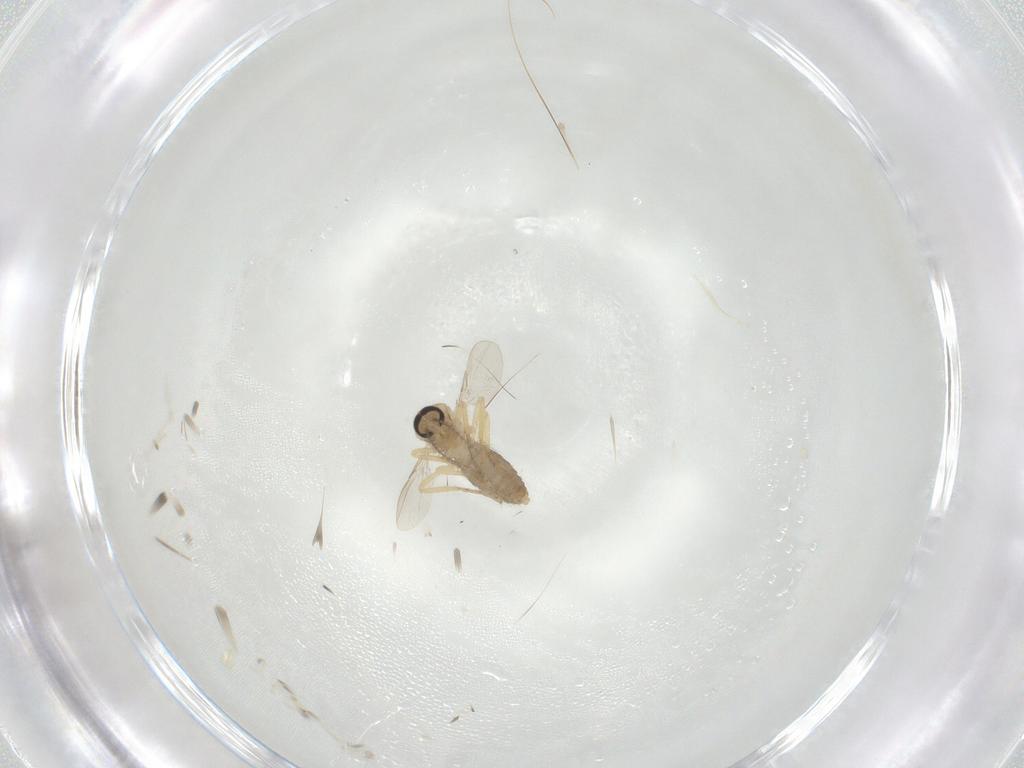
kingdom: Animalia
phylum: Arthropoda
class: Insecta
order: Diptera
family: Ceratopogonidae
